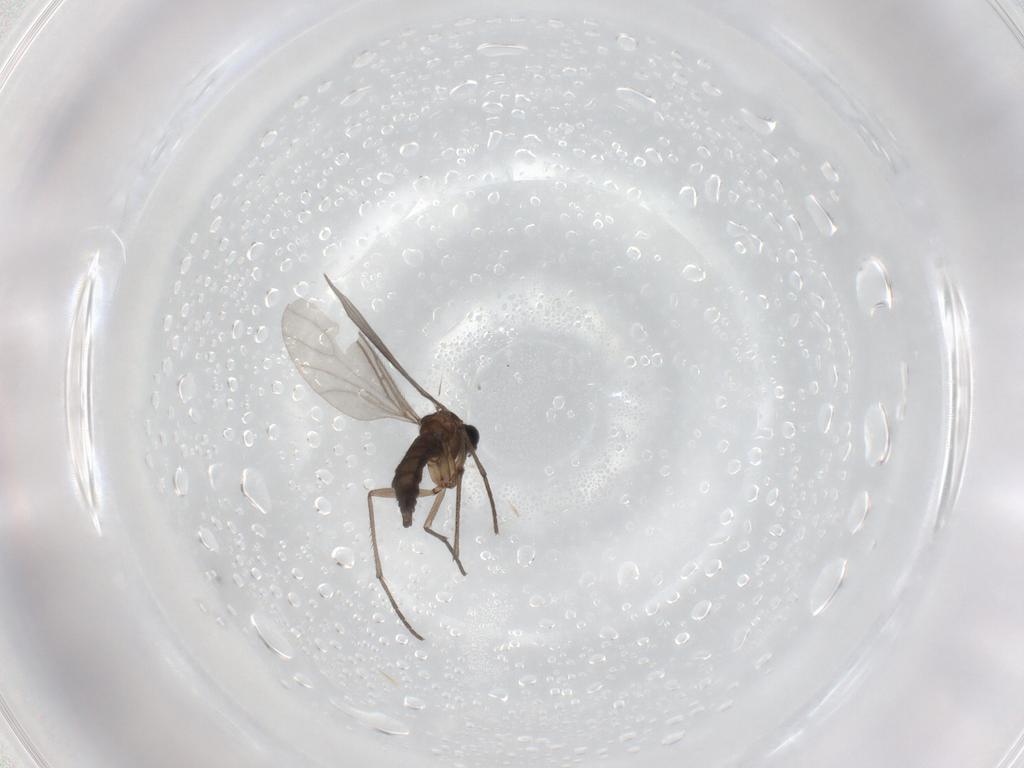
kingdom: Animalia
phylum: Arthropoda
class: Insecta
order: Diptera
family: Sciaridae
